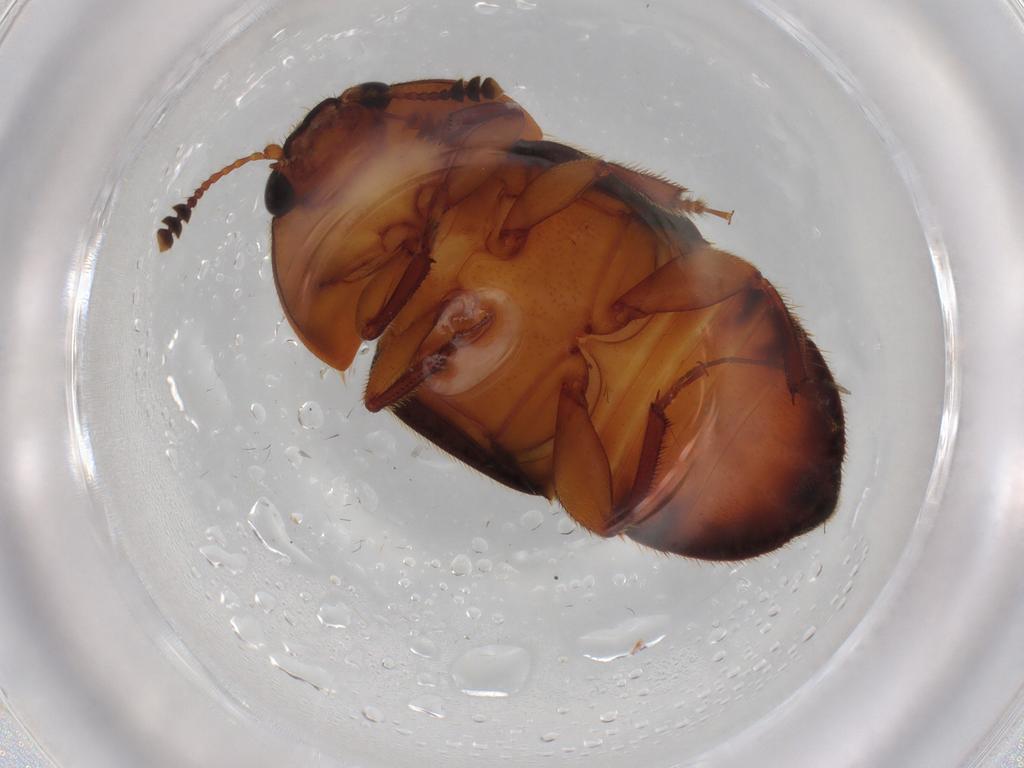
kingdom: Animalia
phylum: Arthropoda
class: Insecta
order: Coleoptera
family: Nitidulidae
